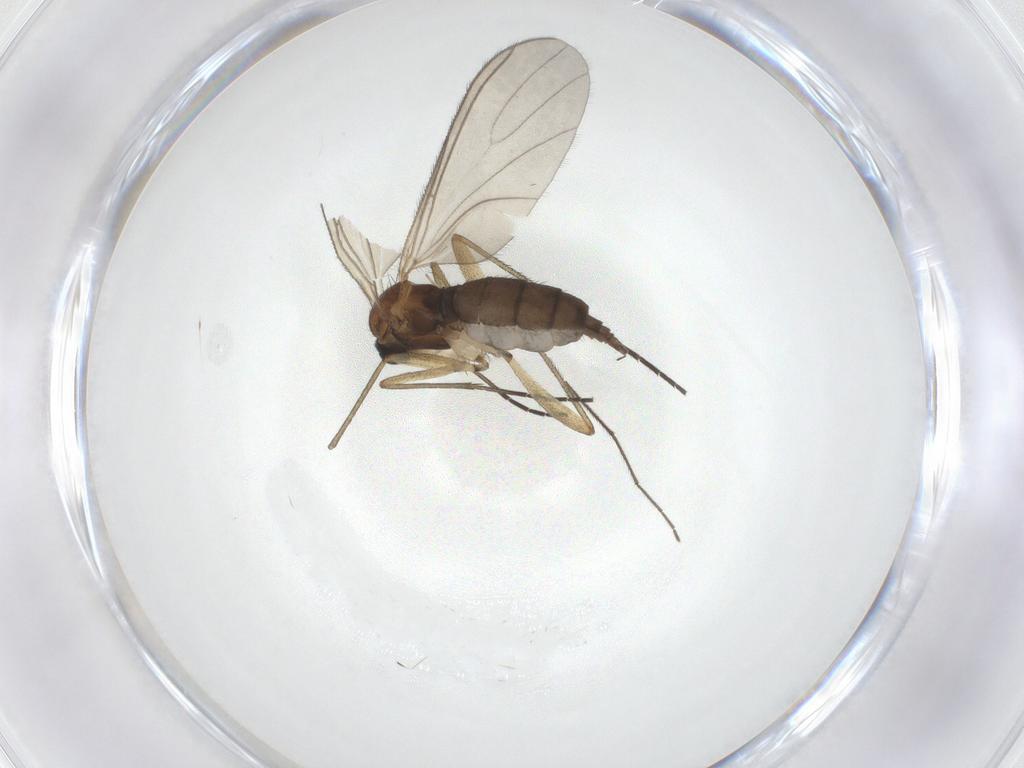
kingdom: Animalia
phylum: Arthropoda
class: Insecta
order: Diptera
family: Sciaridae
